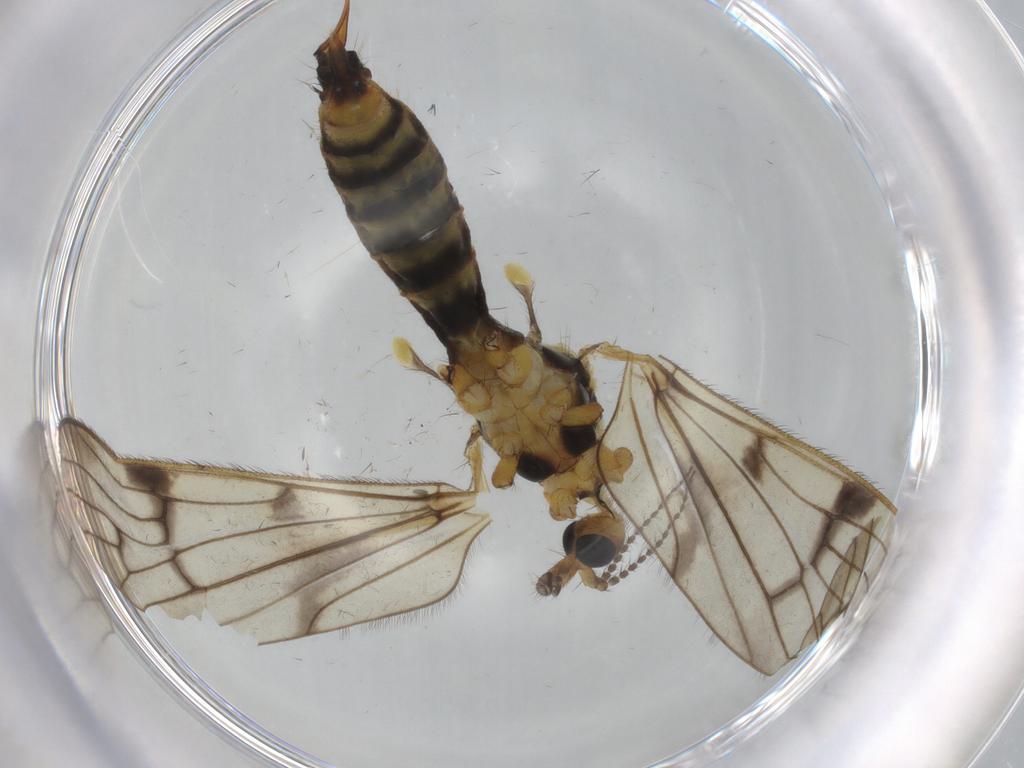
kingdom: Animalia
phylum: Arthropoda
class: Insecta
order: Diptera
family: Limoniidae
